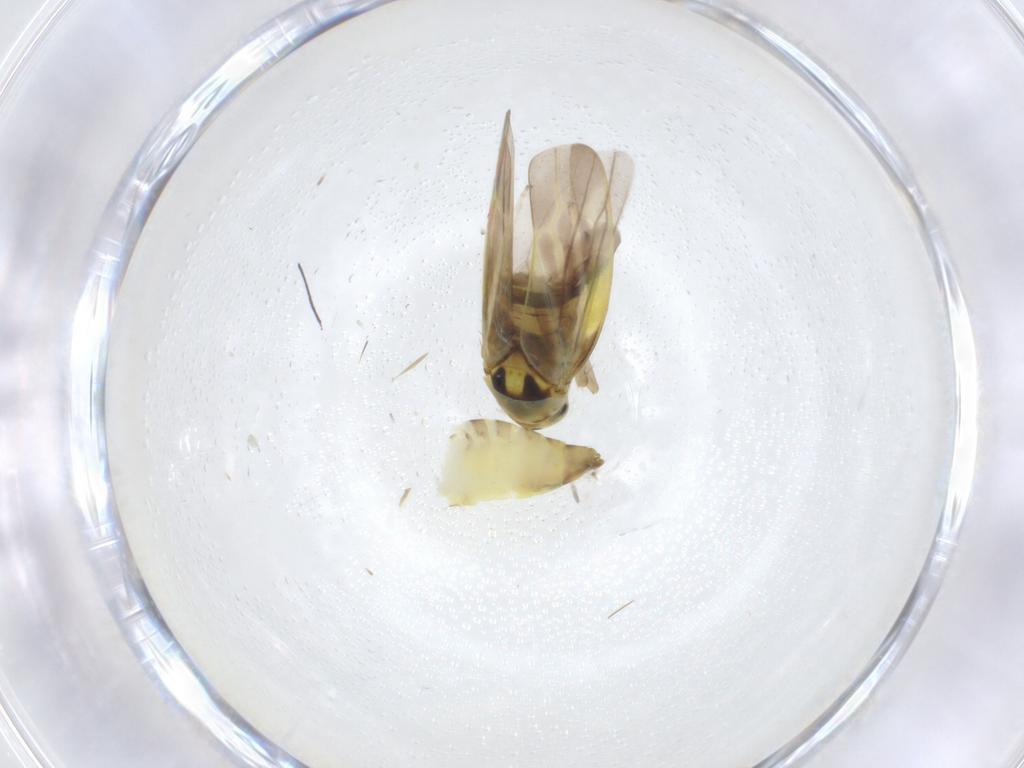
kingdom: Animalia
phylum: Arthropoda
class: Insecta
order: Hemiptera
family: Cicadellidae
